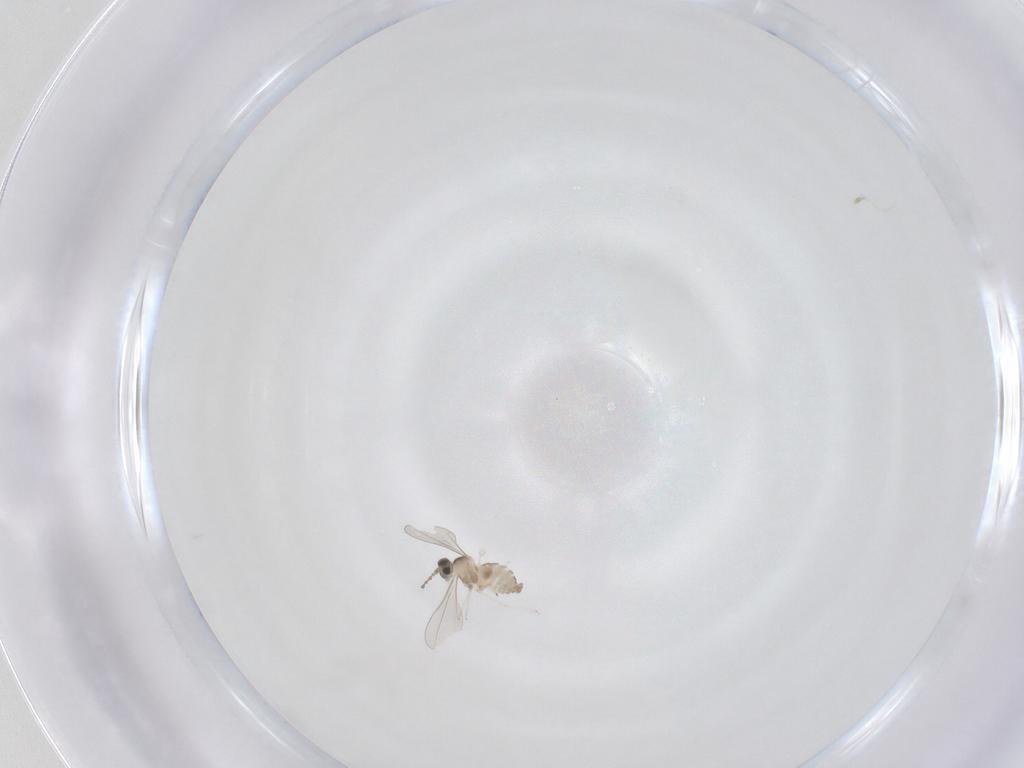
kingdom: Animalia
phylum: Arthropoda
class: Insecta
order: Diptera
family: Cecidomyiidae
